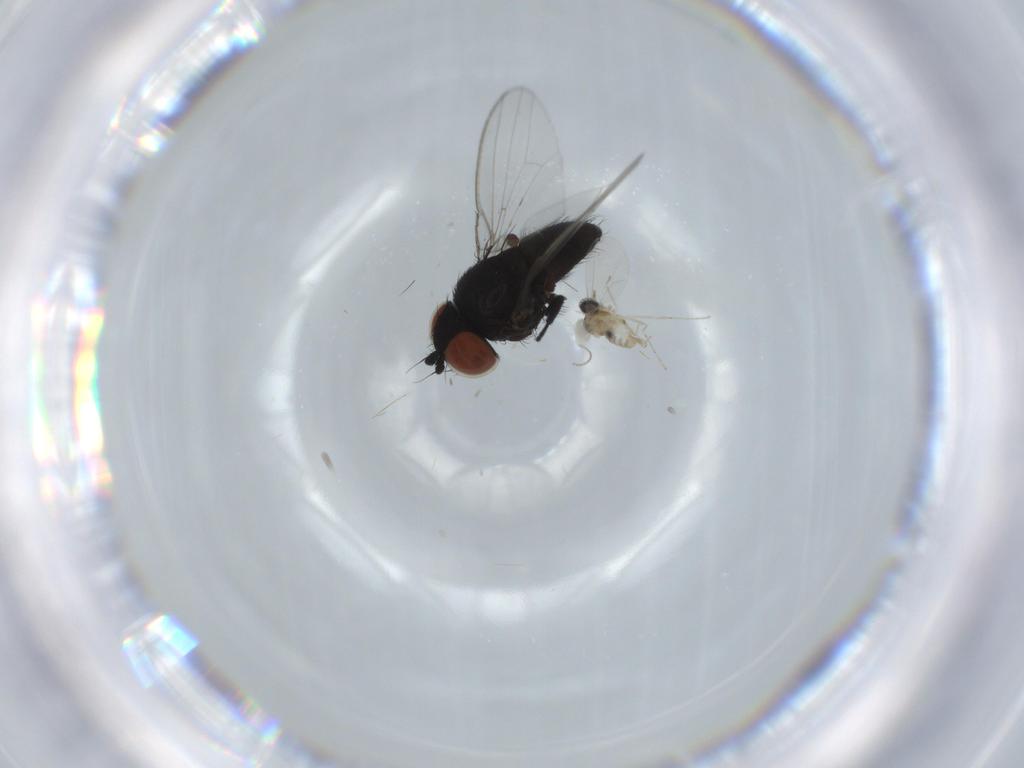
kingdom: Animalia
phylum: Arthropoda
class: Insecta
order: Diptera
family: Cecidomyiidae
